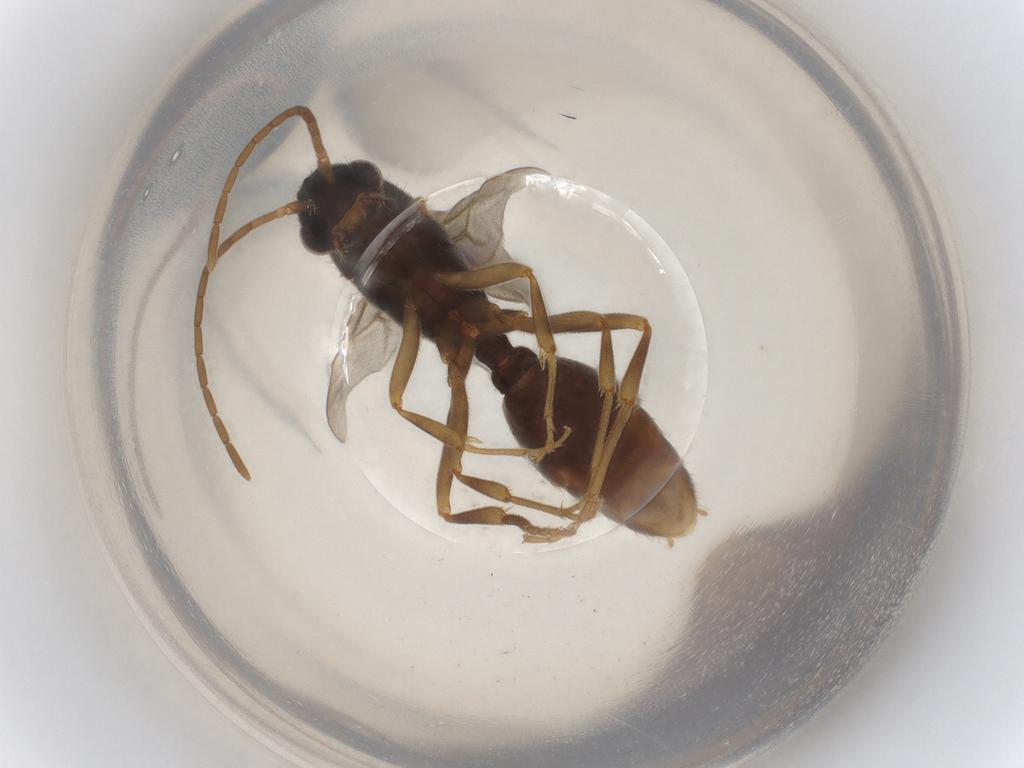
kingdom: Animalia
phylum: Arthropoda
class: Insecta
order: Hymenoptera
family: Formicidae
